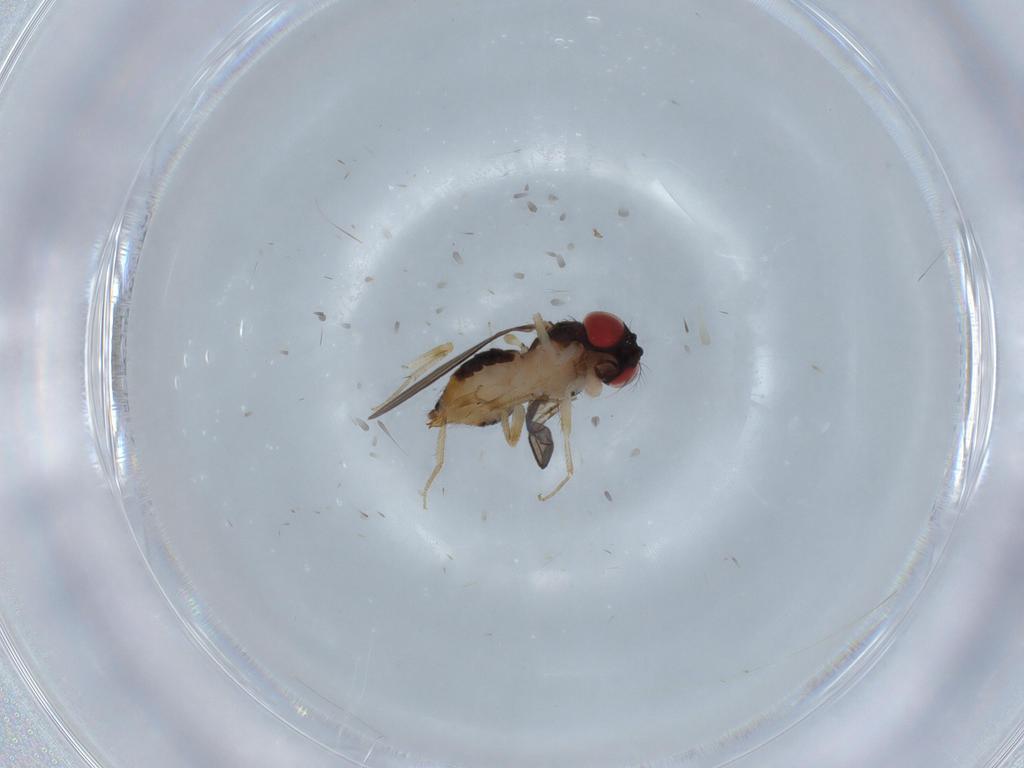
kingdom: Animalia
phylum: Arthropoda
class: Insecta
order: Diptera
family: Drosophilidae
